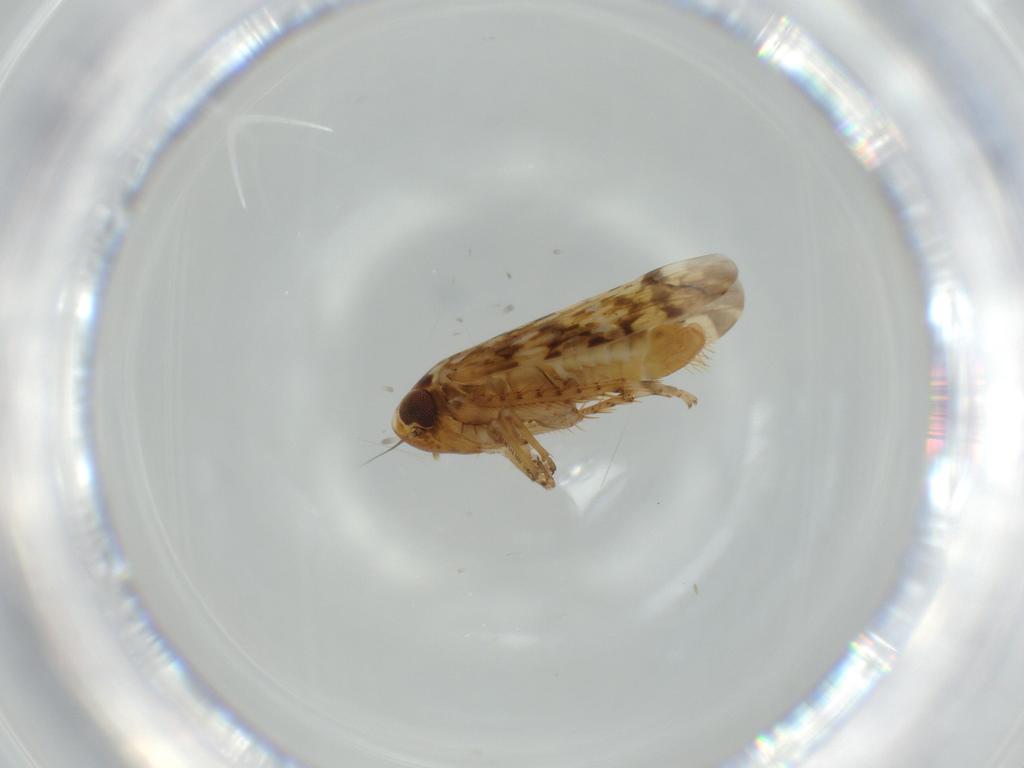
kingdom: Animalia
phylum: Arthropoda
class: Insecta
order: Hemiptera
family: Cicadellidae
